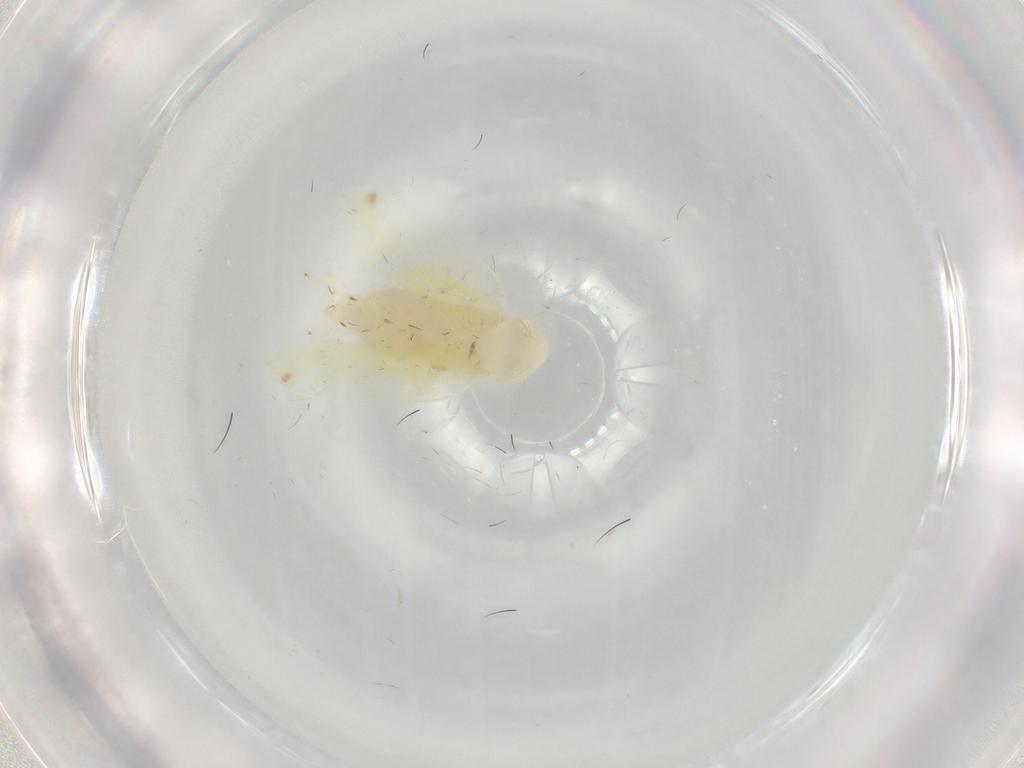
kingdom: Animalia
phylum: Arthropoda
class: Insecta
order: Hemiptera
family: Cicadellidae
